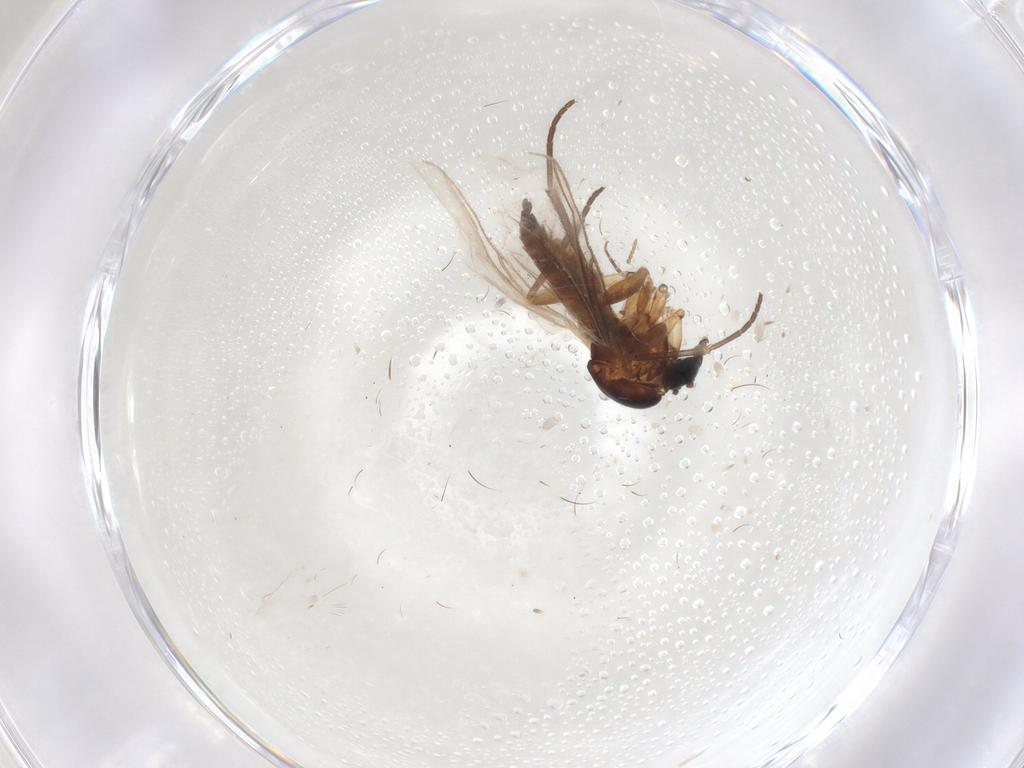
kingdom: Animalia
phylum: Arthropoda
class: Insecta
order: Diptera
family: Sciaridae
